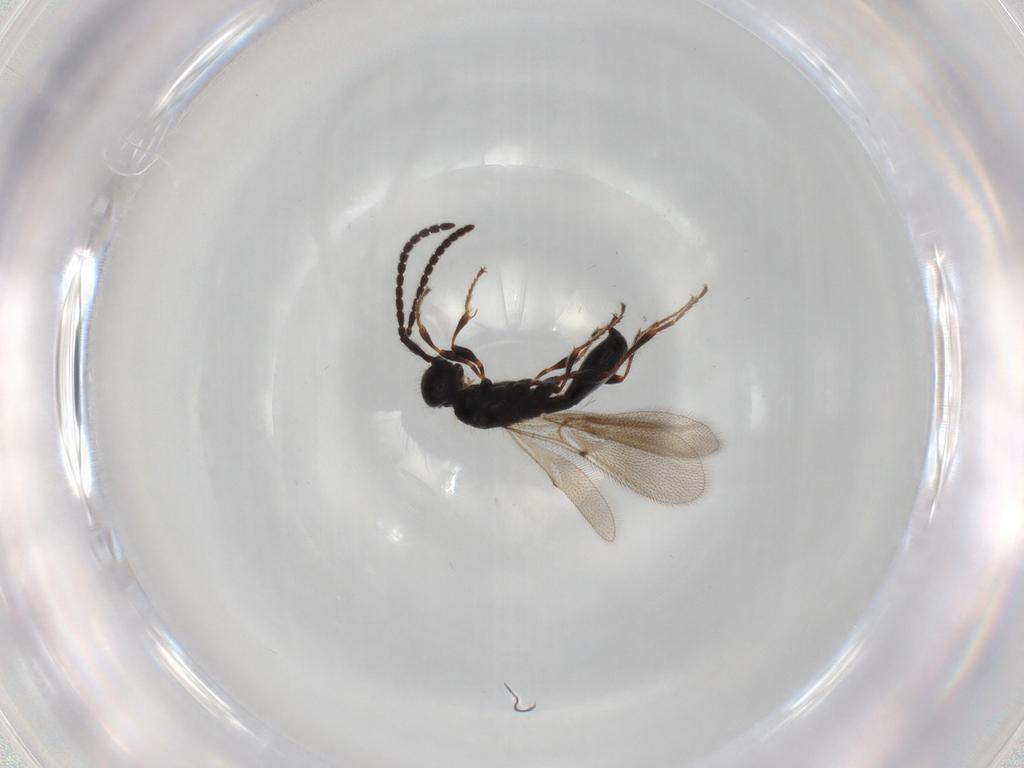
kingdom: Animalia
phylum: Arthropoda
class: Insecta
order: Hymenoptera
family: Diapriidae
